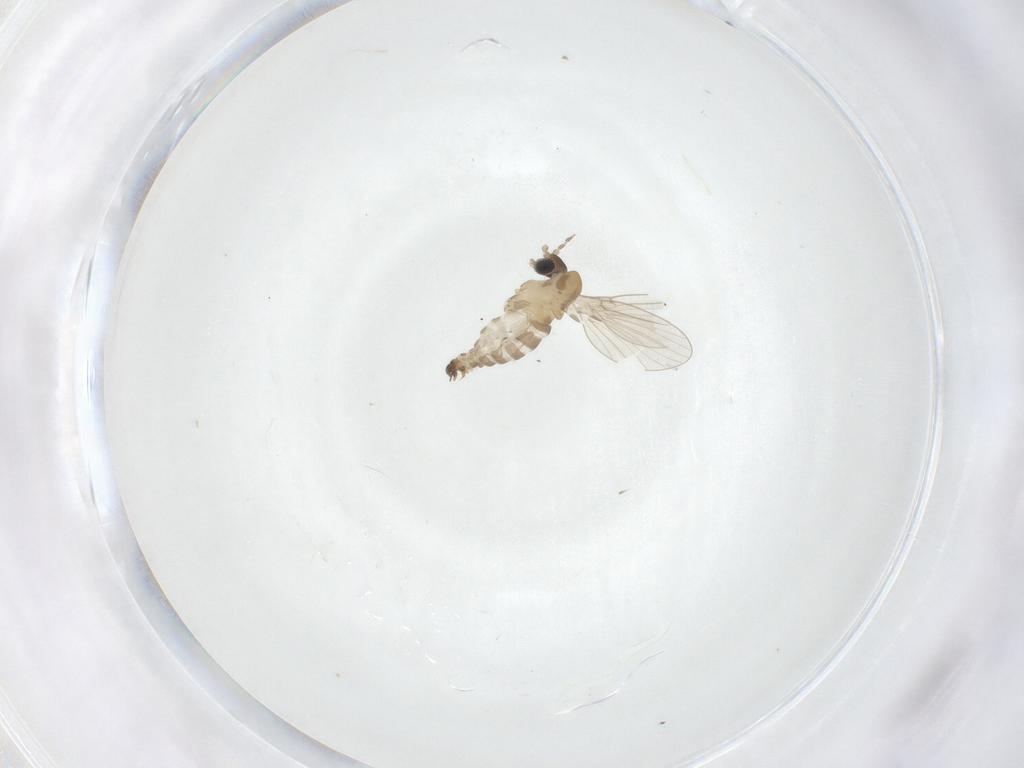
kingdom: Animalia
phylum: Arthropoda
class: Insecta
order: Diptera
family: Psychodidae
